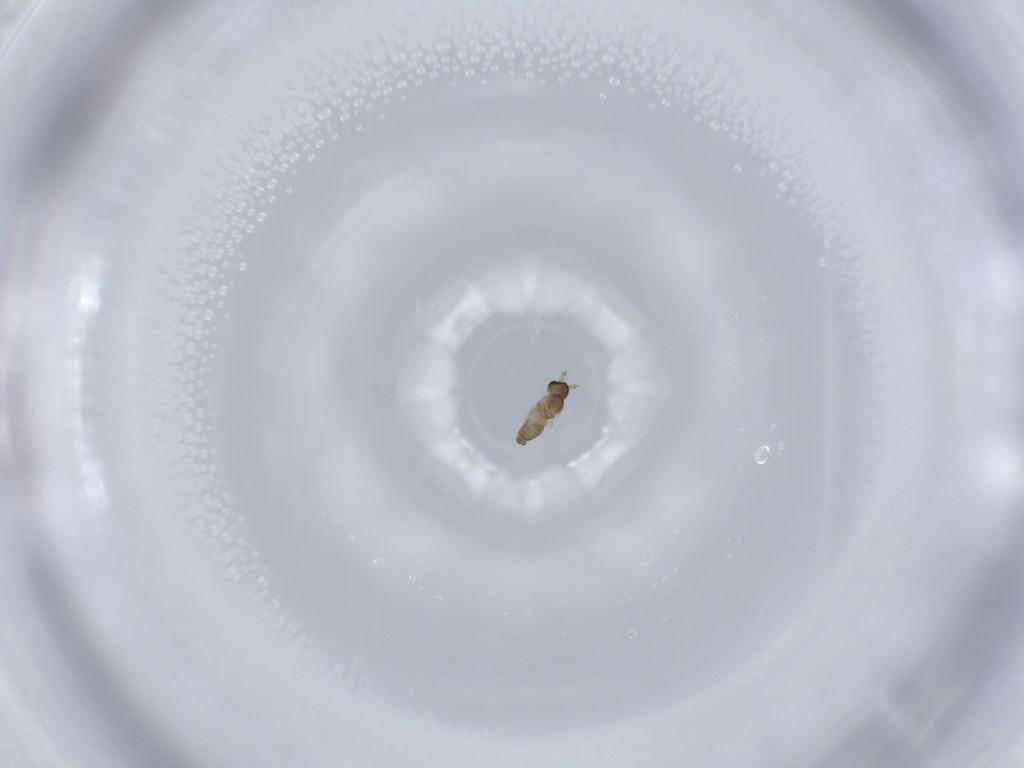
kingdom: Animalia
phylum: Arthropoda
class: Insecta
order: Diptera
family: Cecidomyiidae
